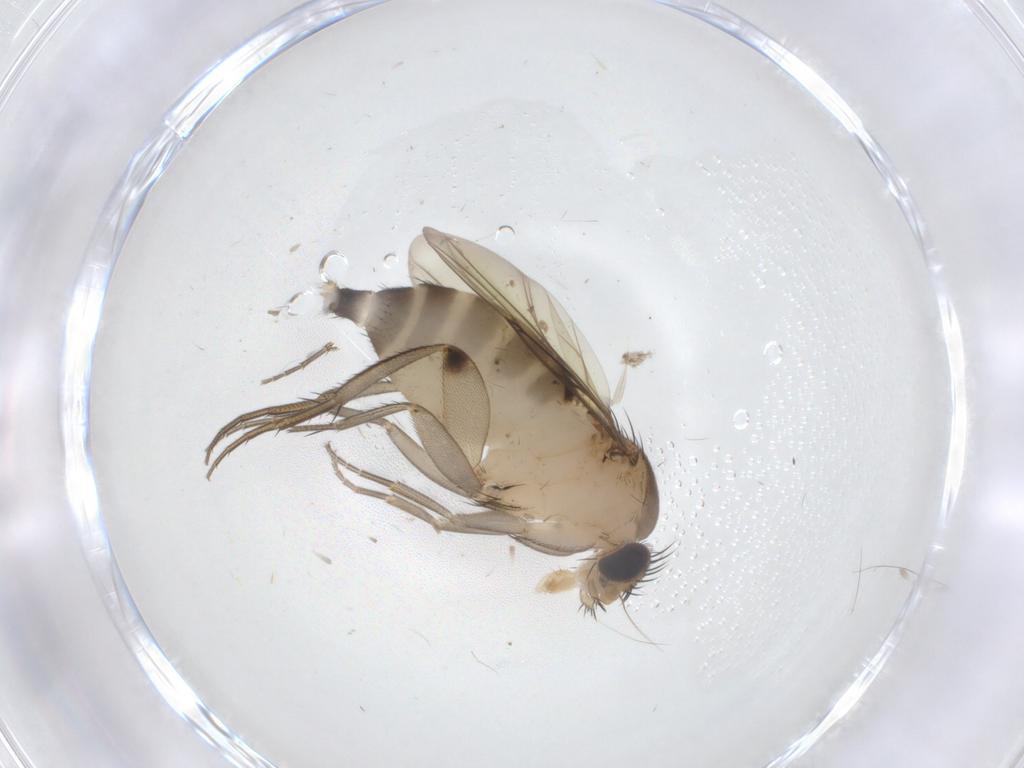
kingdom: Animalia
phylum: Arthropoda
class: Insecta
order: Diptera
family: Phoridae
